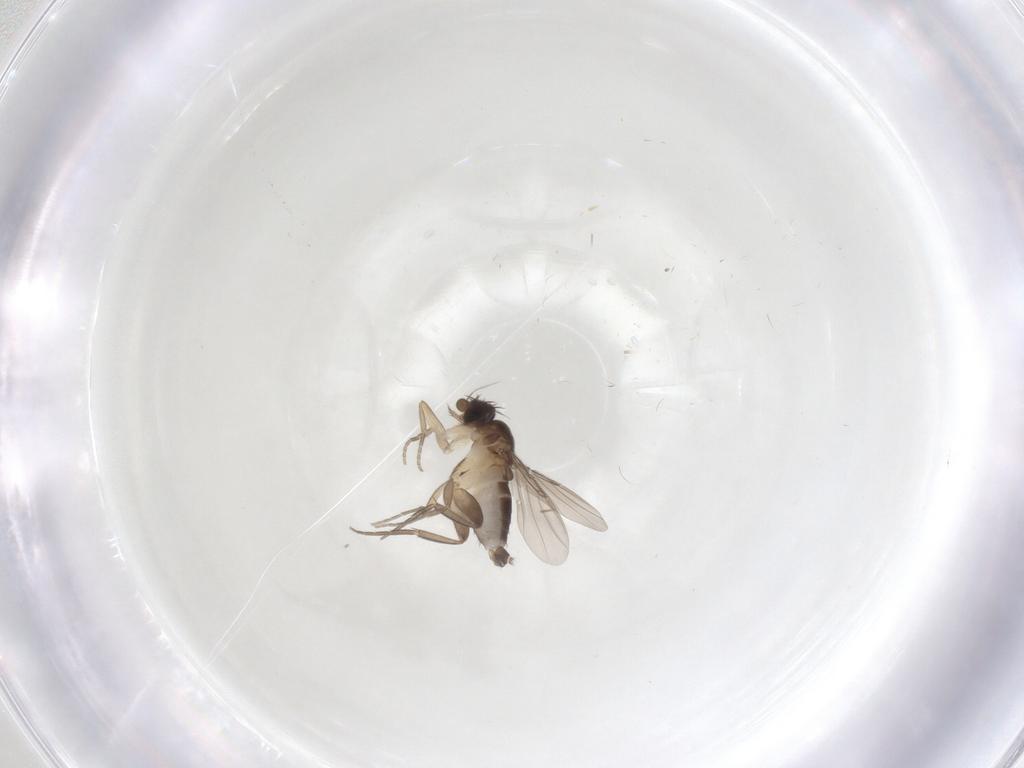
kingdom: Animalia
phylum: Arthropoda
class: Insecta
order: Diptera
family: Phoridae
